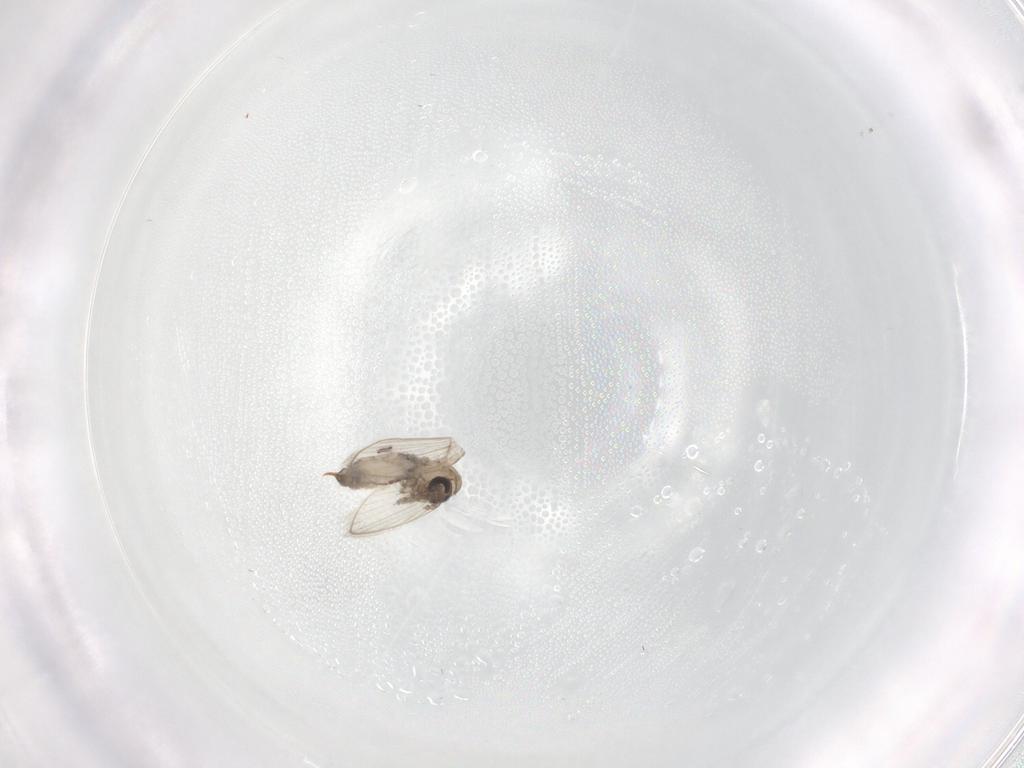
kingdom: Animalia
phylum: Arthropoda
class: Insecta
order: Diptera
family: Psychodidae
